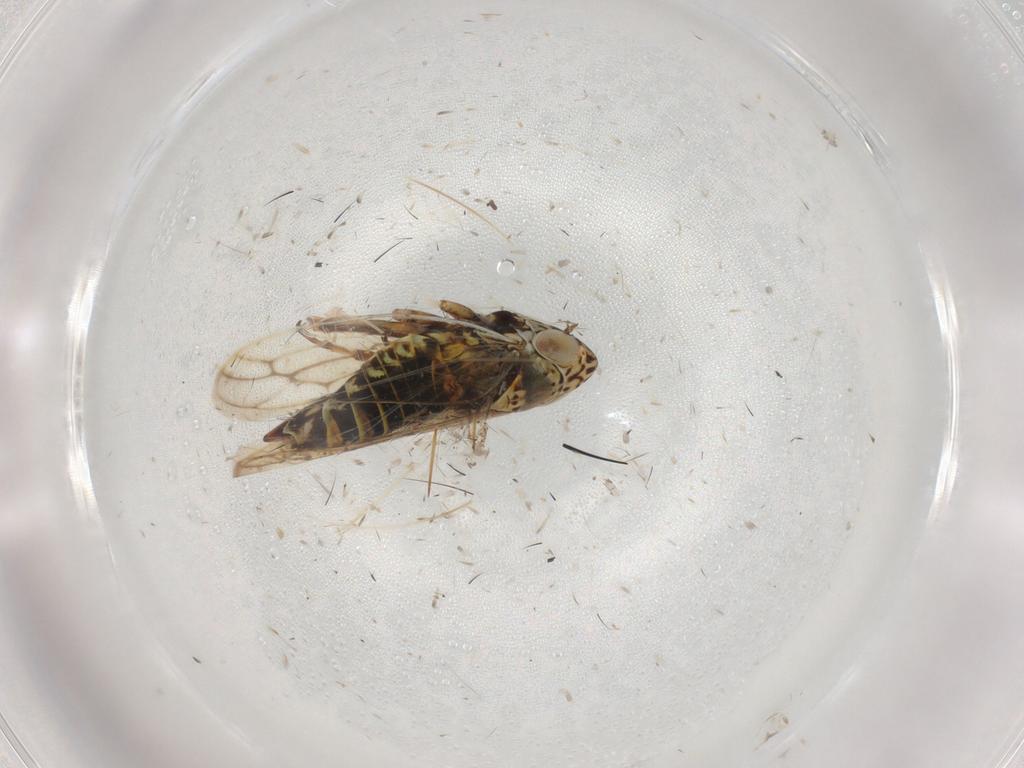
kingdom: Animalia
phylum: Arthropoda
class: Insecta
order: Hemiptera
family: Cicadellidae
